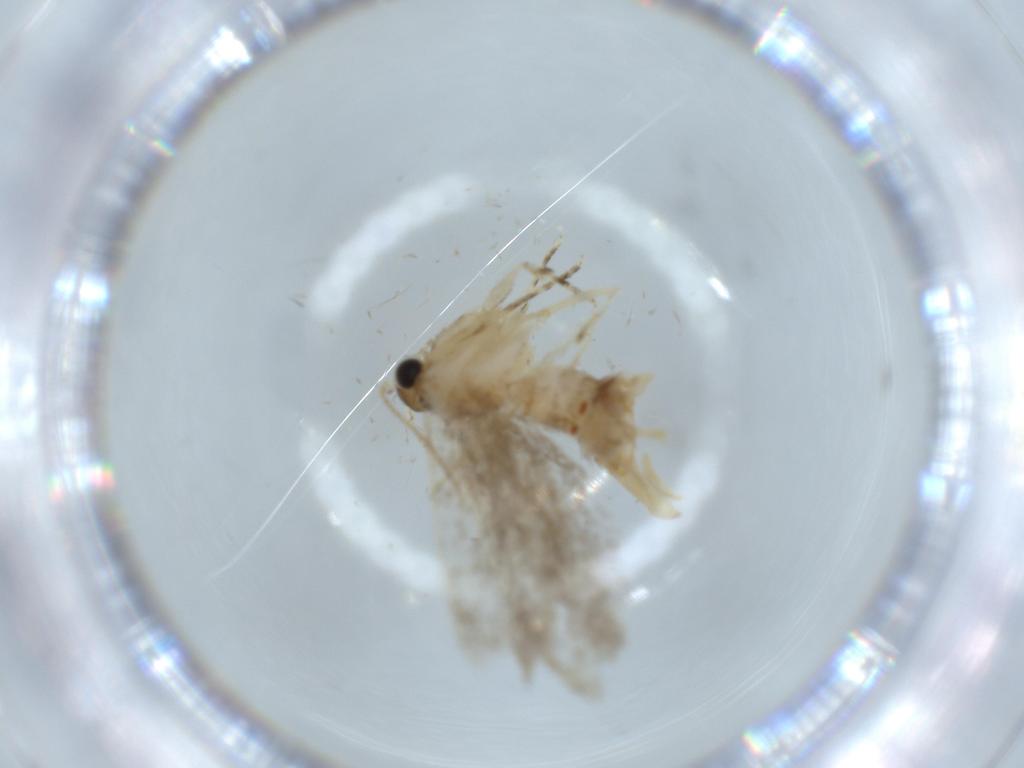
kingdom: Animalia
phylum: Arthropoda
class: Insecta
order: Lepidoptera
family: Tineidae
